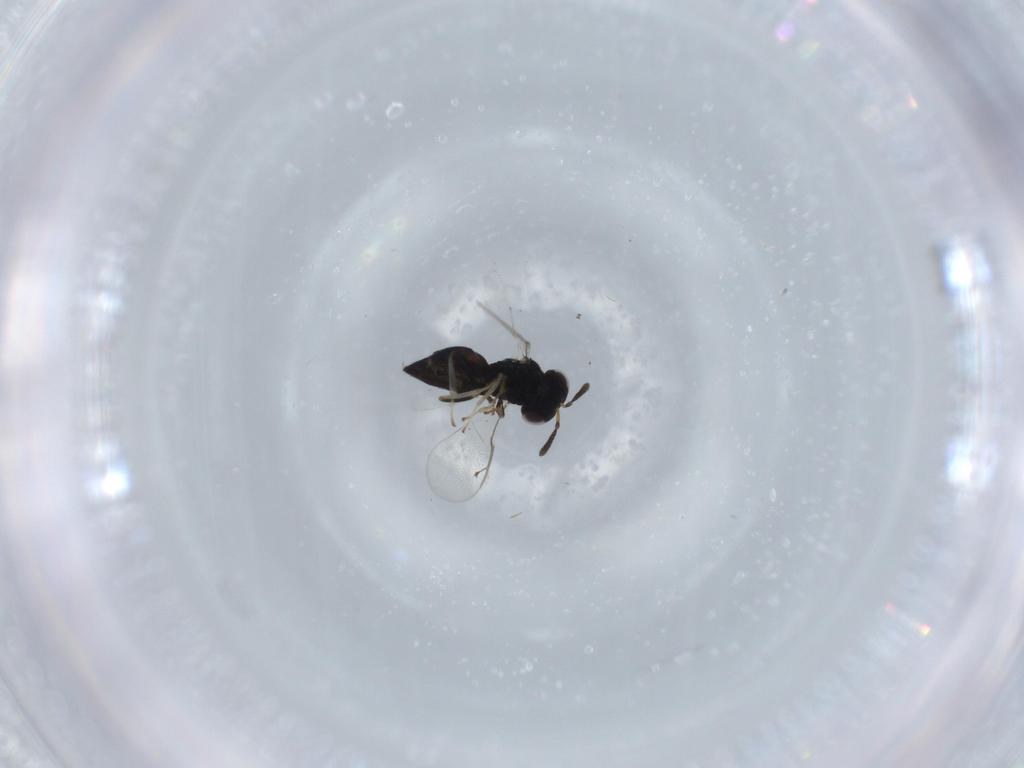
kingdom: Animalia
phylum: Arthropoda
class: Insecta
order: Hymenoptera
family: Pteromalidae
